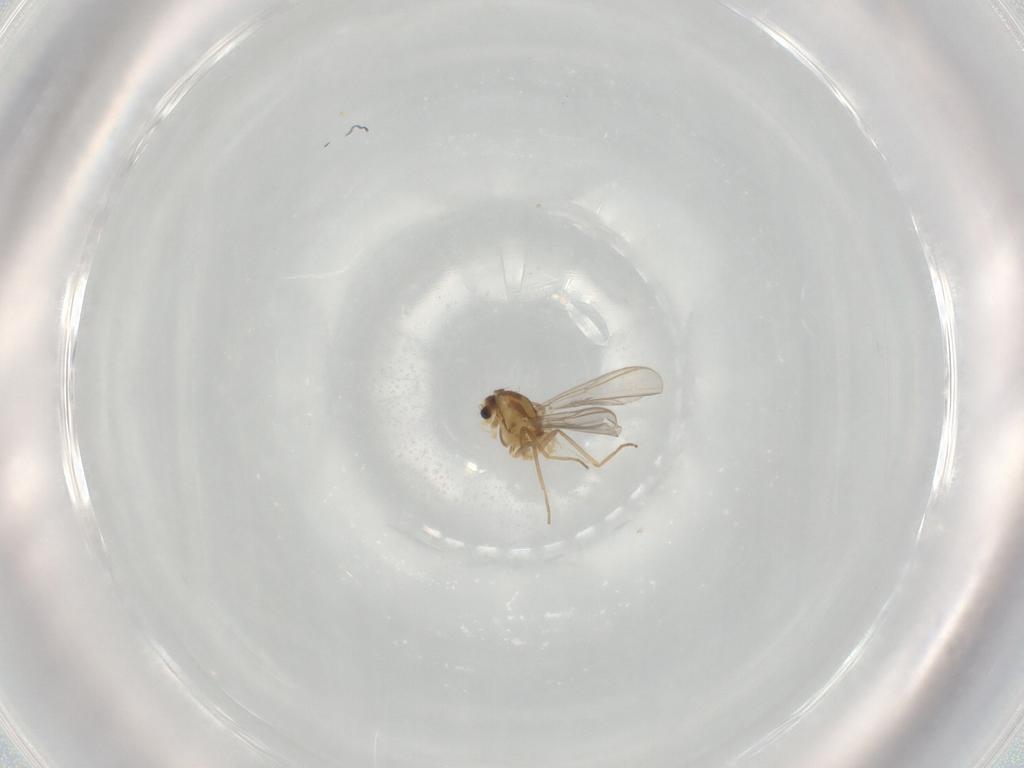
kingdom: Animalia
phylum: Arthropoda
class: Insecta
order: Diptera
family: Chironomidae
